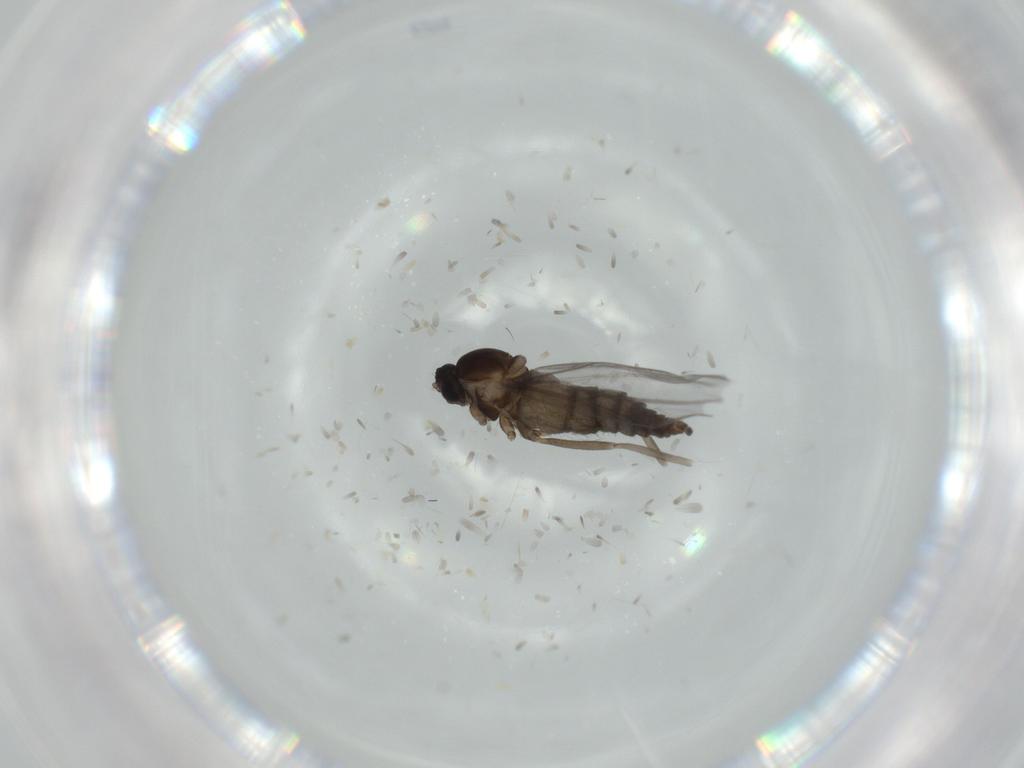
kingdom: Animalia
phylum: Arthropoda
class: Insecta
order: Diptera
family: Cecidomyiidae
